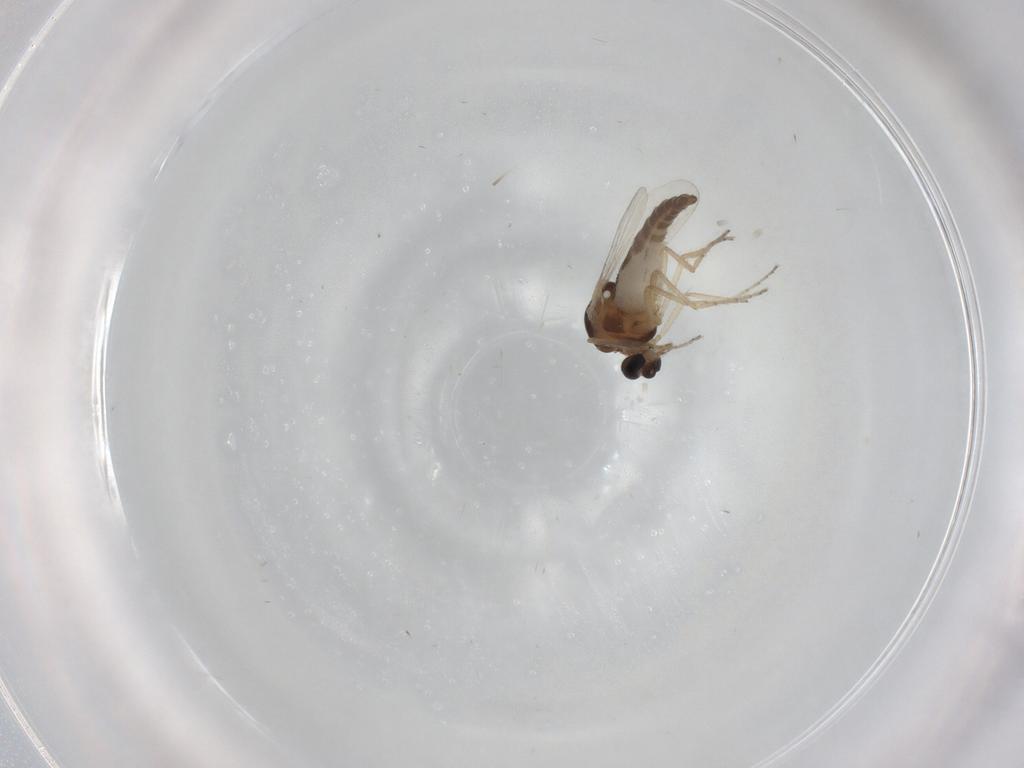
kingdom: Animalia
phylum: Arthropoda
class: Insecta
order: Diptera
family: Ceratopogonidae
